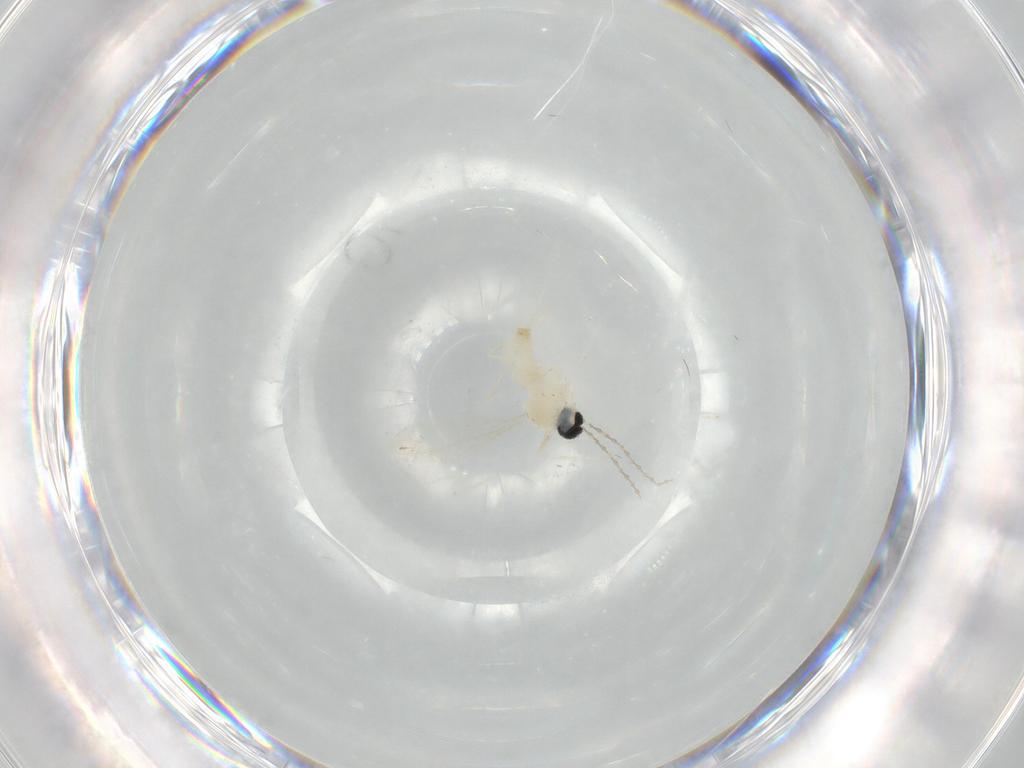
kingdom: Animalia
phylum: Arthropoda
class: Insecta
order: Diptera
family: Cecidomyiidae
